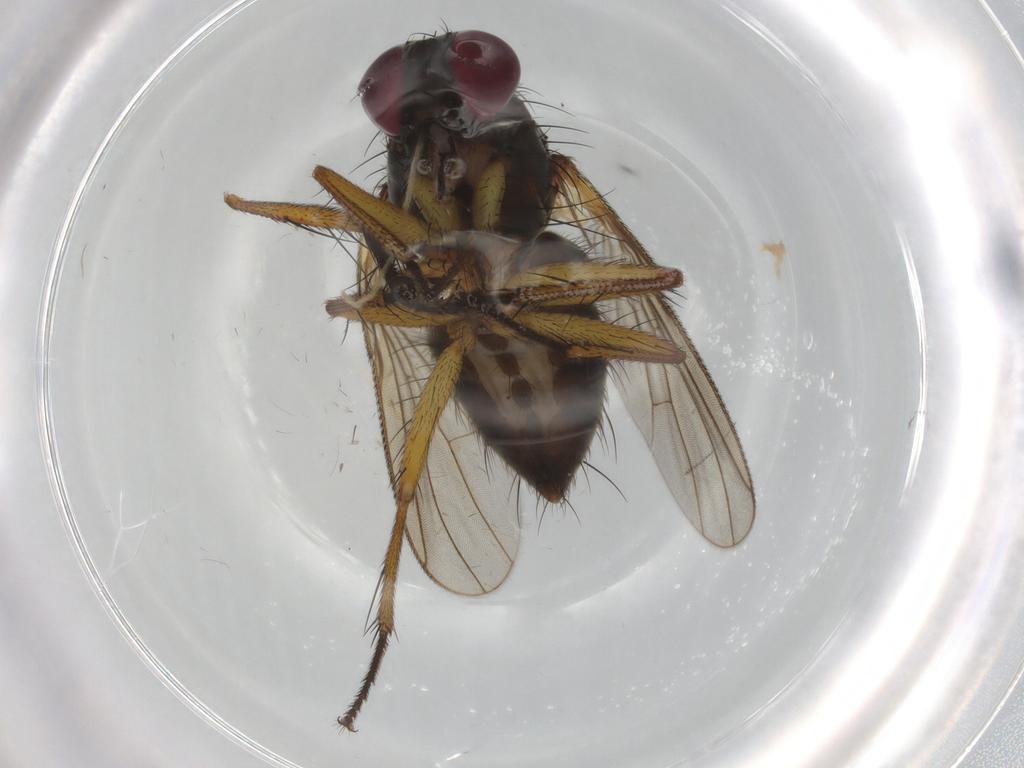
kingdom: Animalia
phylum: Arthropoda
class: Insecta
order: Diptera
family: Muscidae
